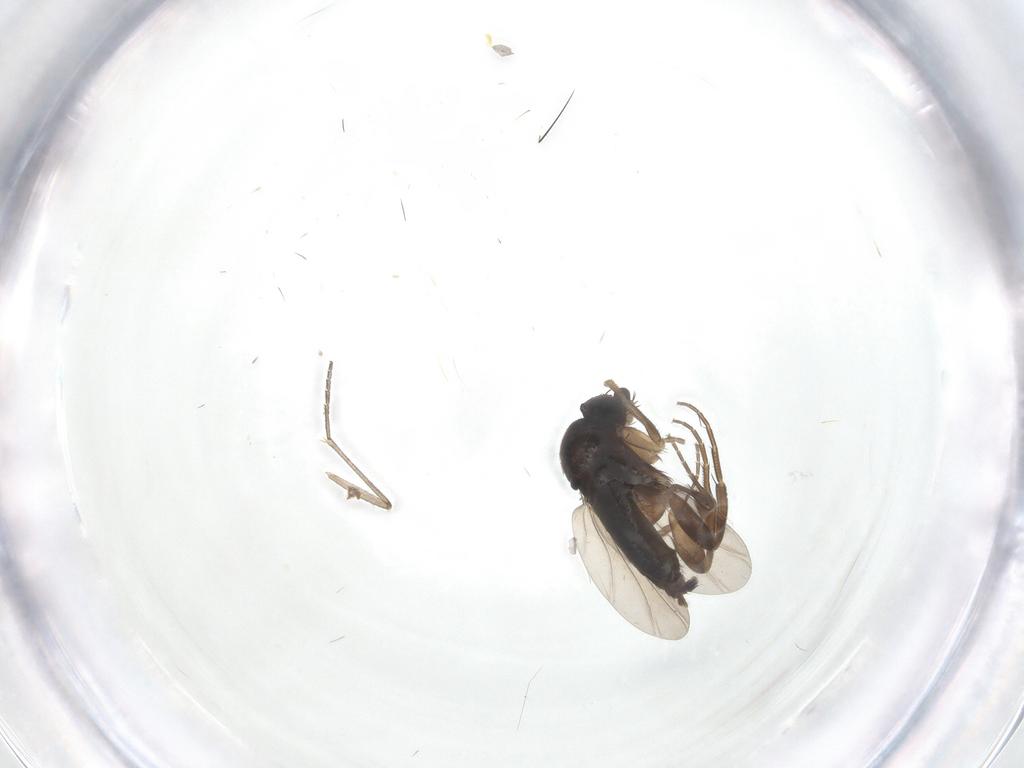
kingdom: Animalia
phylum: Arthropoda
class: Insecta
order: Diptera
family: Phoridae
